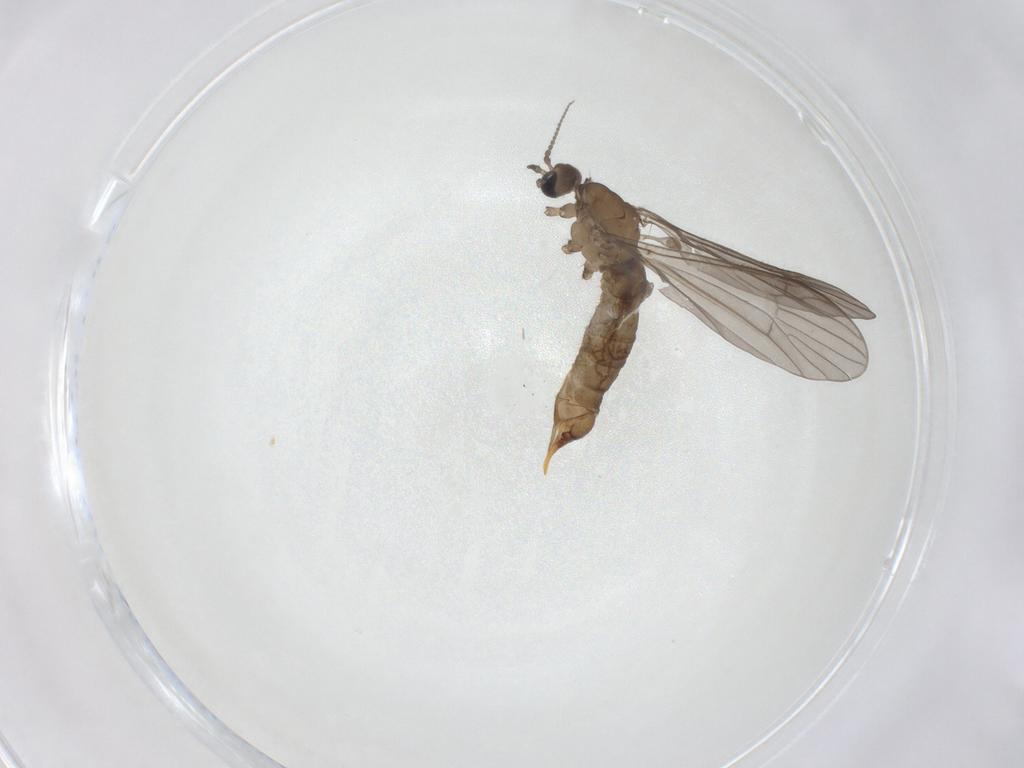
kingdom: Animalia
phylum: Arthropoda
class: Insecta
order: Diptera
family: Limoniidae
